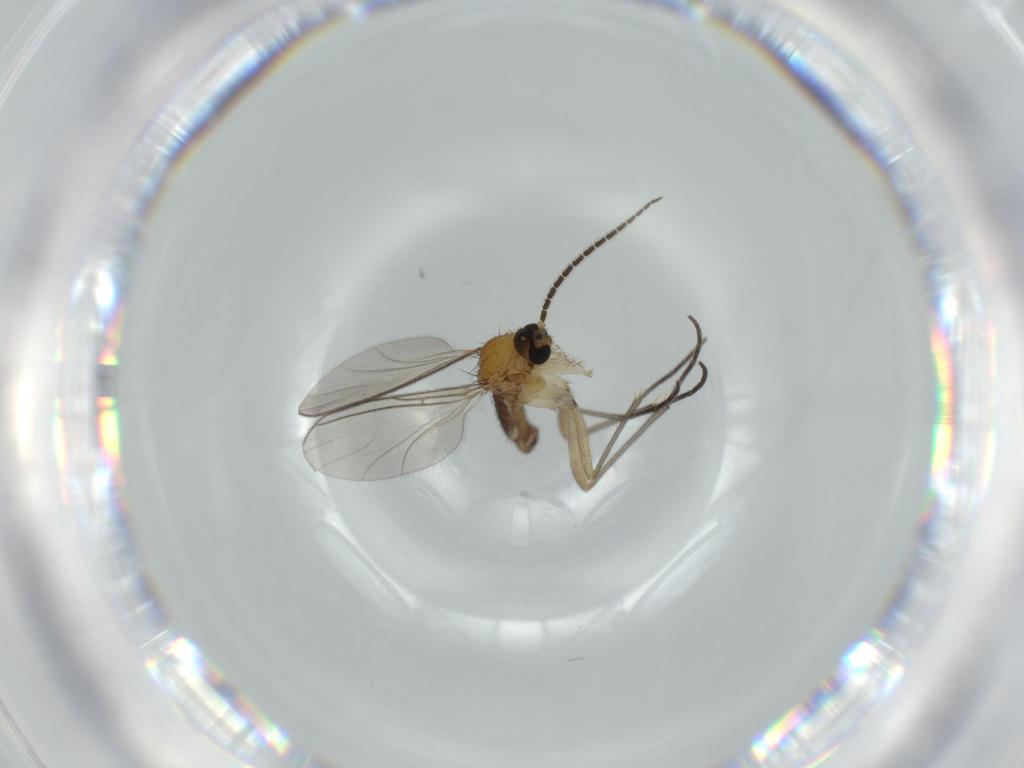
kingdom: Animalia
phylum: Arthropoda
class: Insecta
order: Diptera
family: Sciaridae
